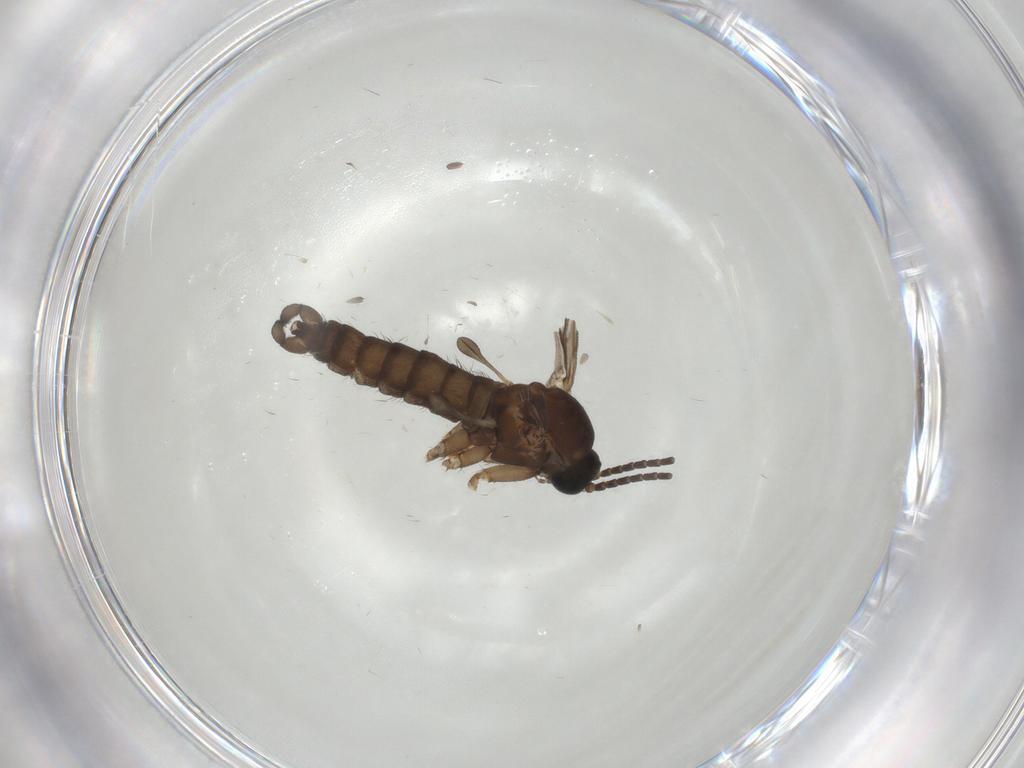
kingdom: Animalia
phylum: Arthropoda
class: Insecta
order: Diptera
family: Sciaridae
